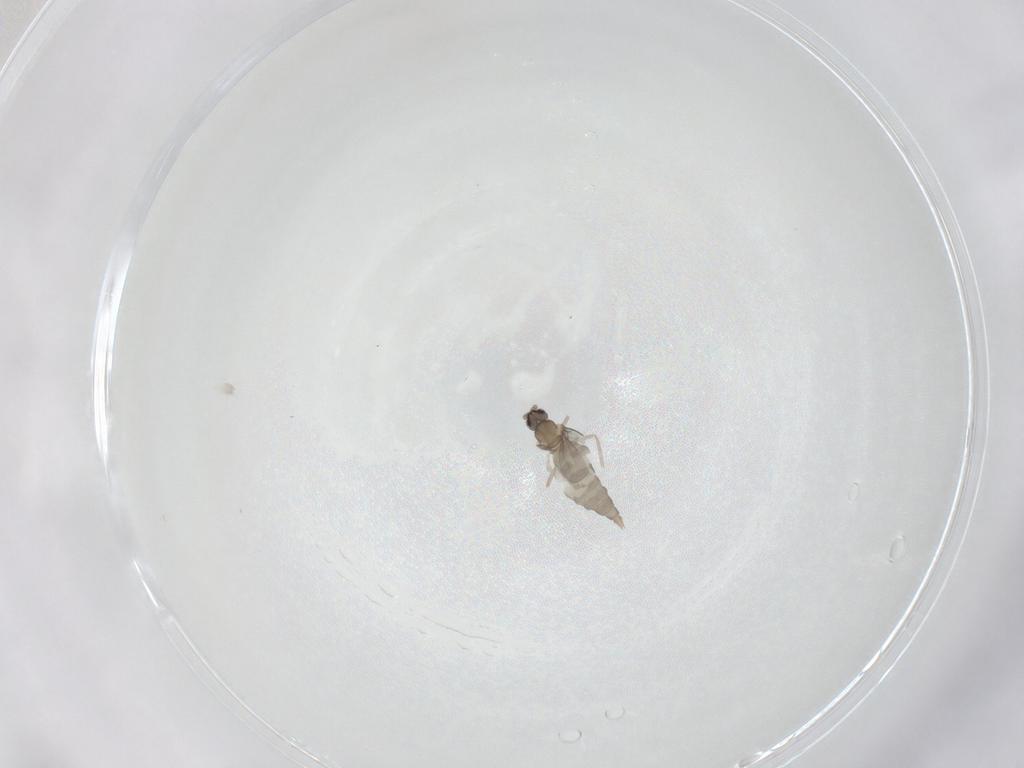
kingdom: Animalia
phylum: Arthropoda
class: Insecta
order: Diptera
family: Cecidomyiidae
